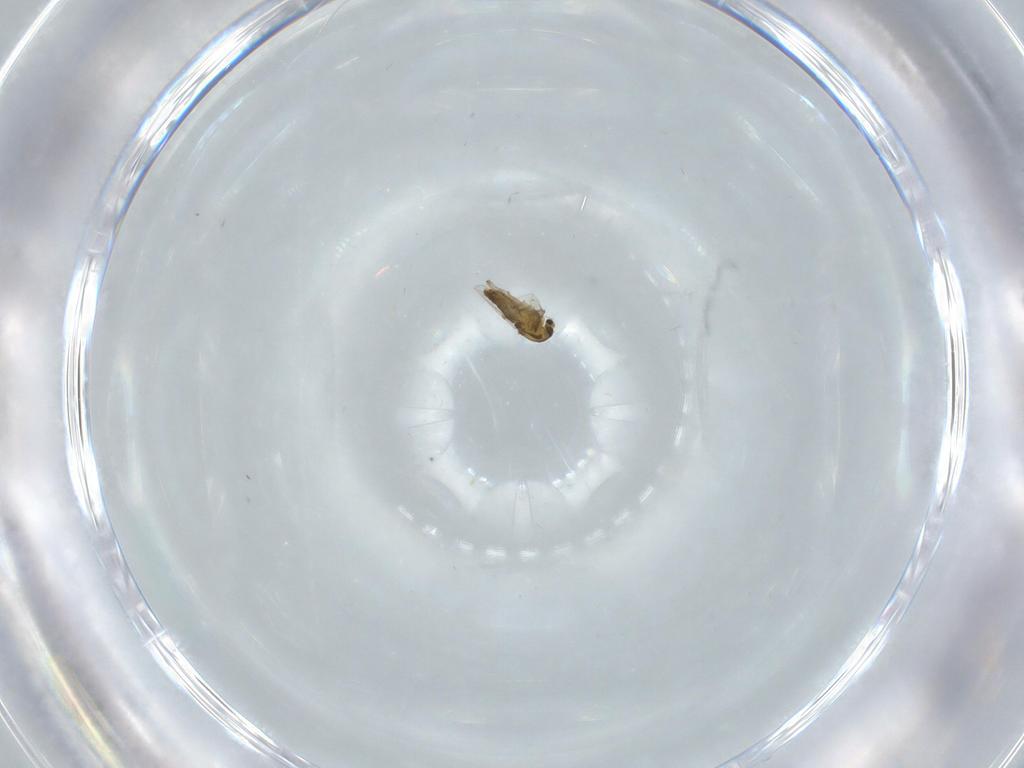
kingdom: Animalia
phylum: Arthropoda
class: Insecta
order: Diptera
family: Chironomidae
